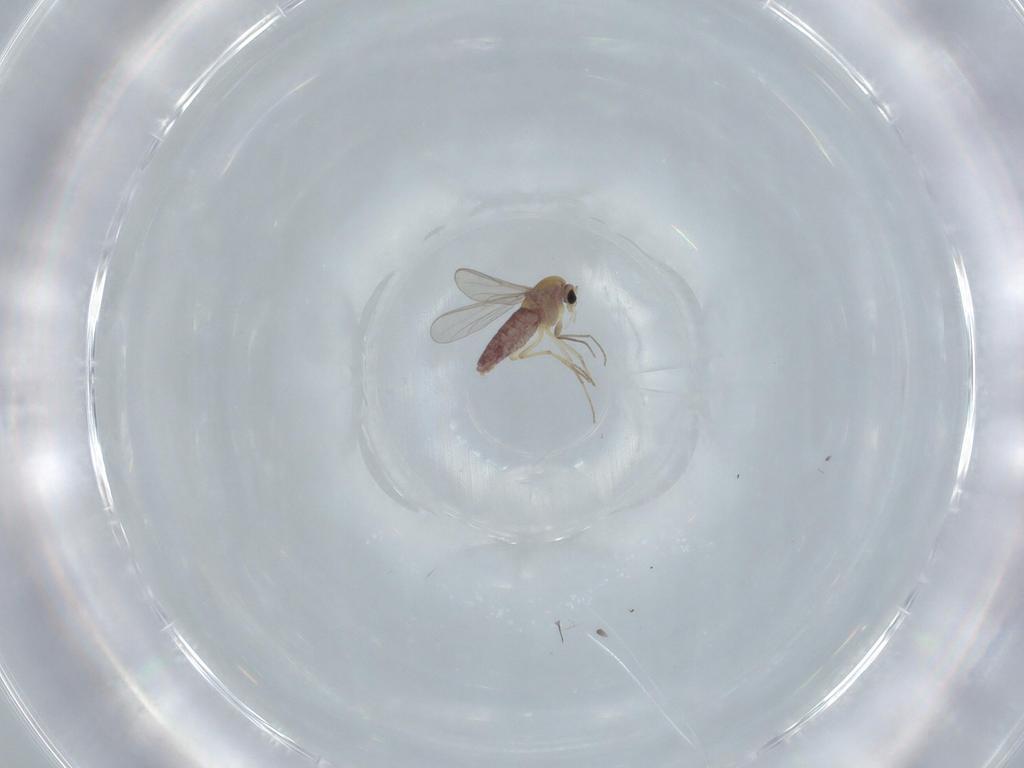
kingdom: Animalia
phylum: Arthropoda
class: Insecta
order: Diptera
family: Chironomidae
